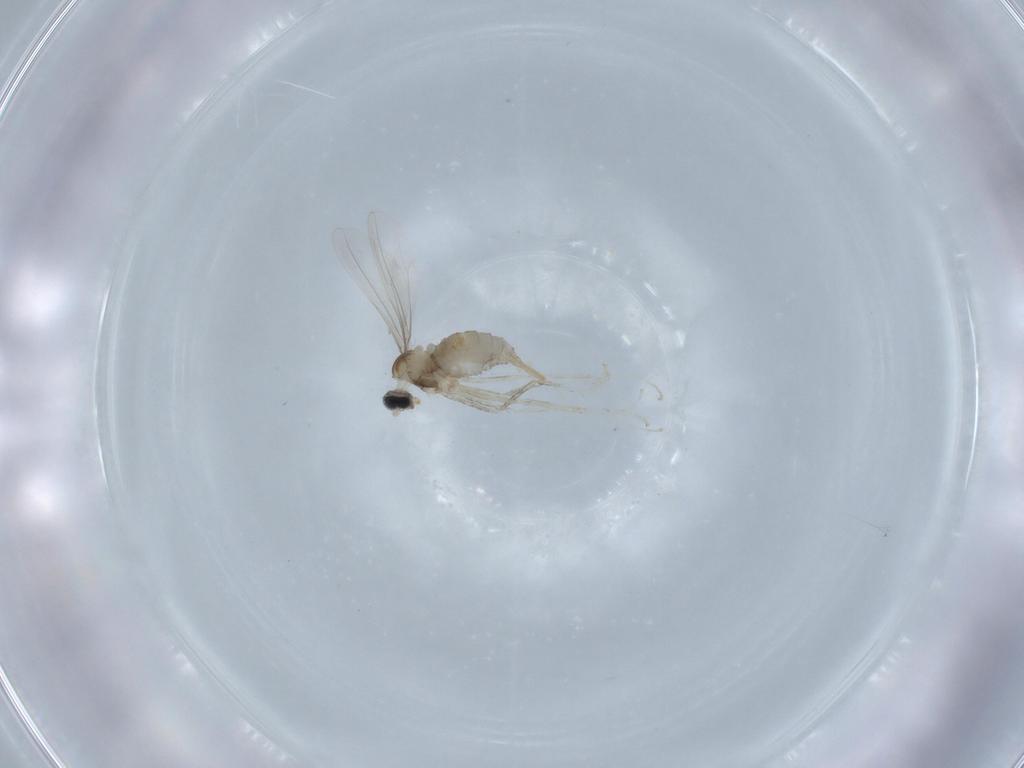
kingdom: Animalia
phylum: Arthropoda
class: Insecta
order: Diptera
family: Cecidomyiidae
